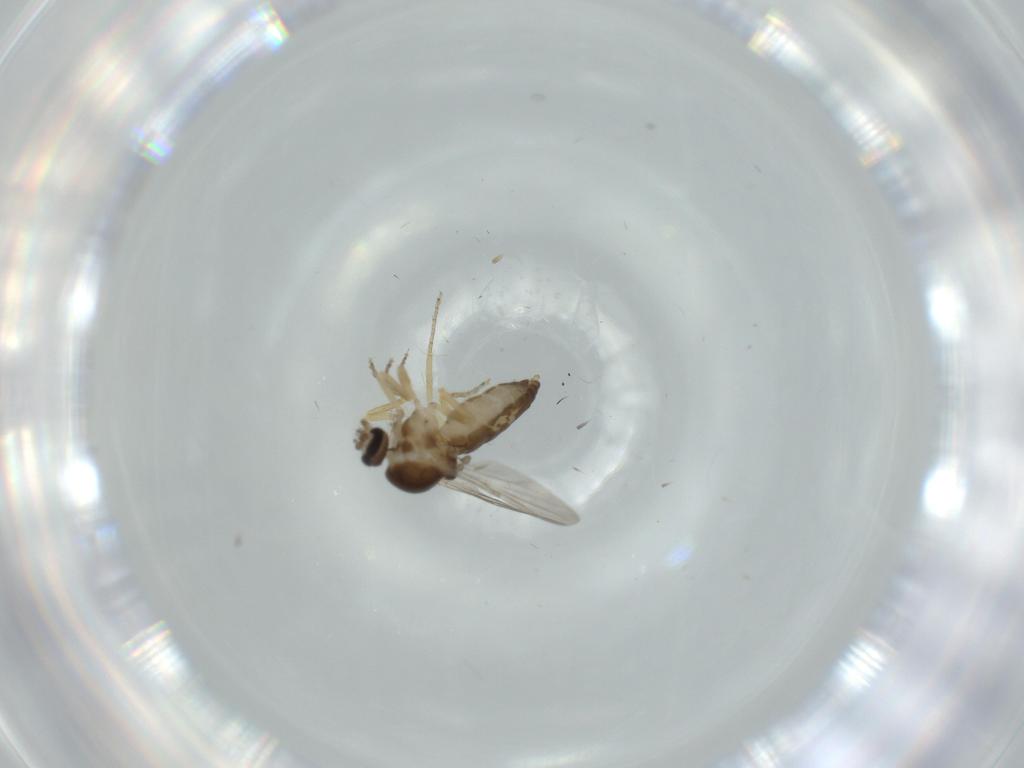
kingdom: Animalia
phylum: Arthropoda
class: Insecta
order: Diptera
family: Ceratopogonidae
